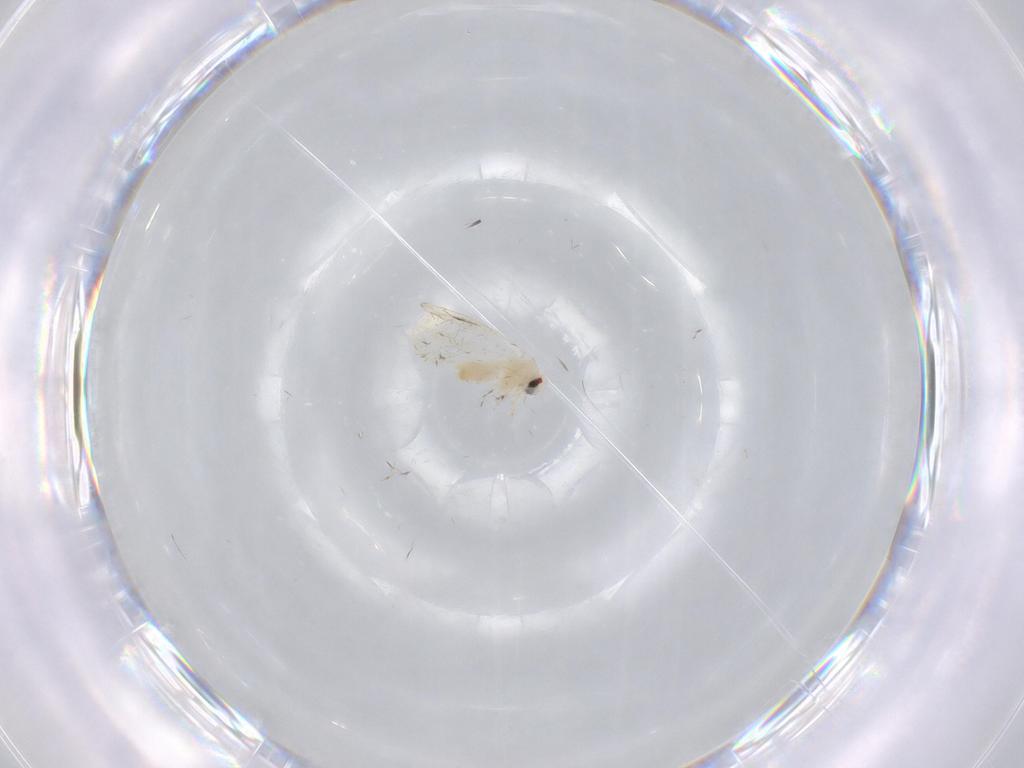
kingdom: Animalia
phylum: Arthropoda
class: Insecta
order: Hemiptera
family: Aleyrodidae
